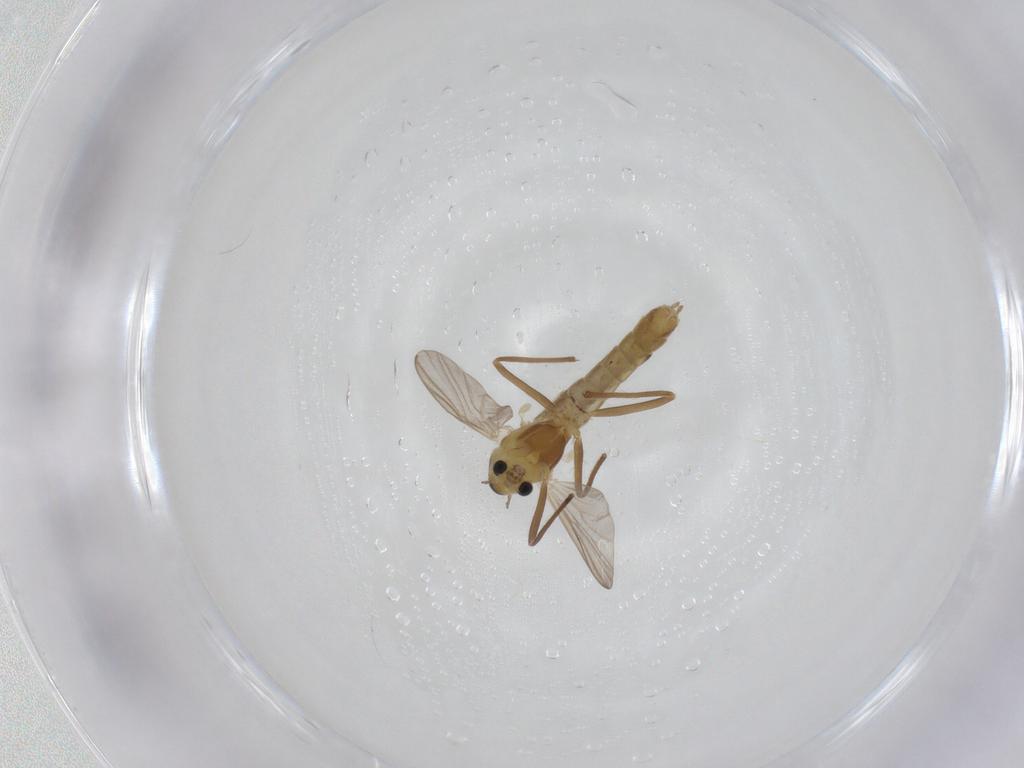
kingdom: Animalia
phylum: Arthropoda
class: Insecta
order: Diptera
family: Chironomidae
